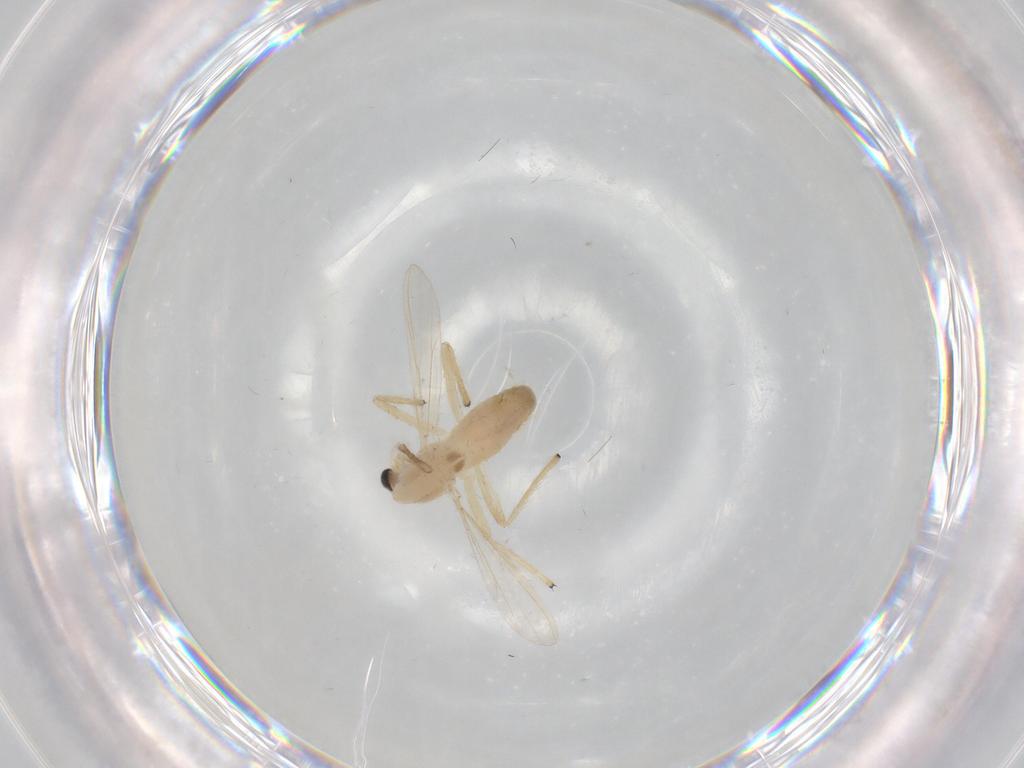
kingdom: Animalia
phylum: Arthropoda
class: Insecta
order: Diptera
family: Chironomidae
